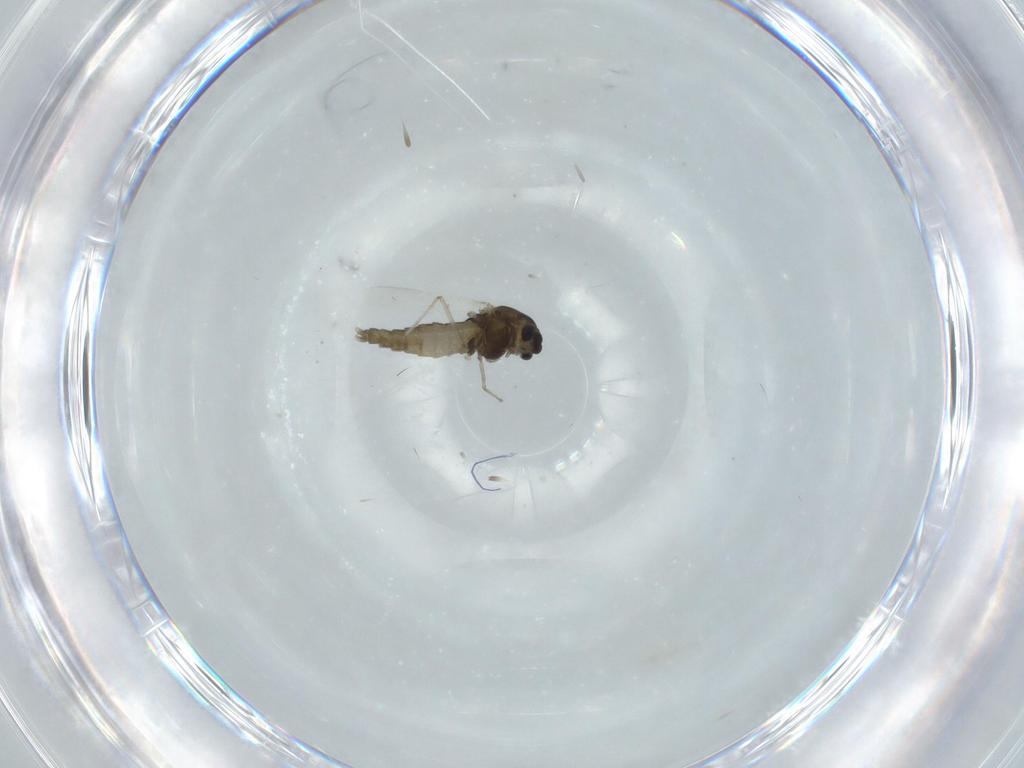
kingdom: Animalia
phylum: Arthropoda
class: Insecta
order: Diptera
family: Chironomidae
